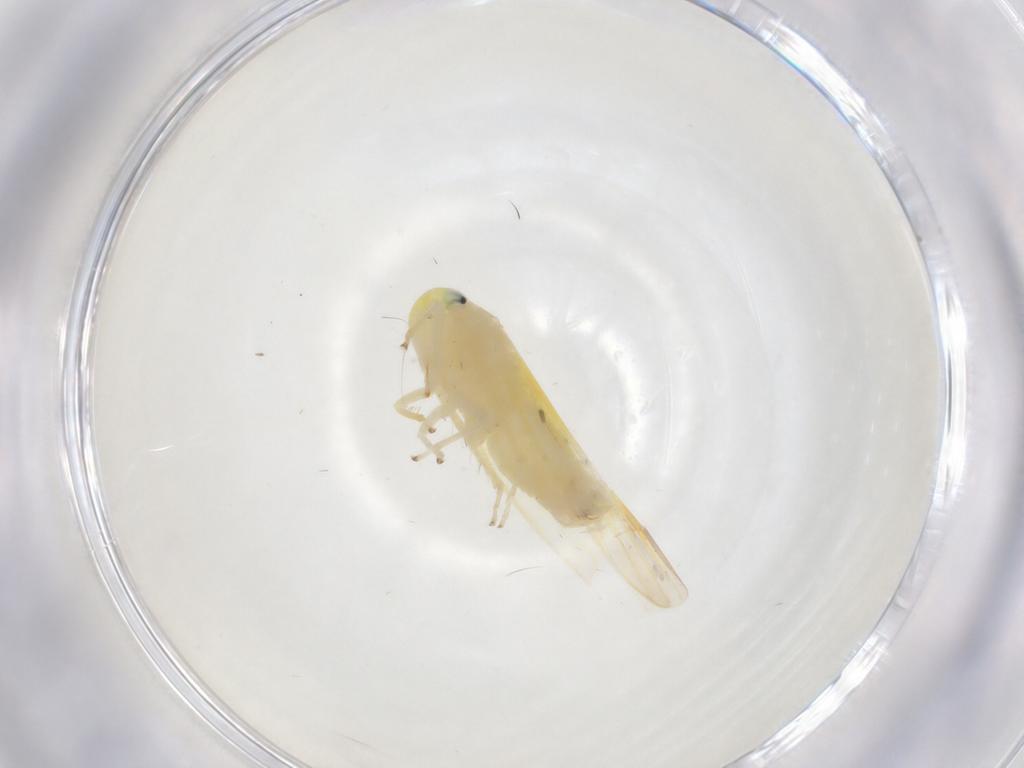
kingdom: Animalia
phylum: Arthropoda
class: Insecta
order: Hemiptera
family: Cicadellidae
